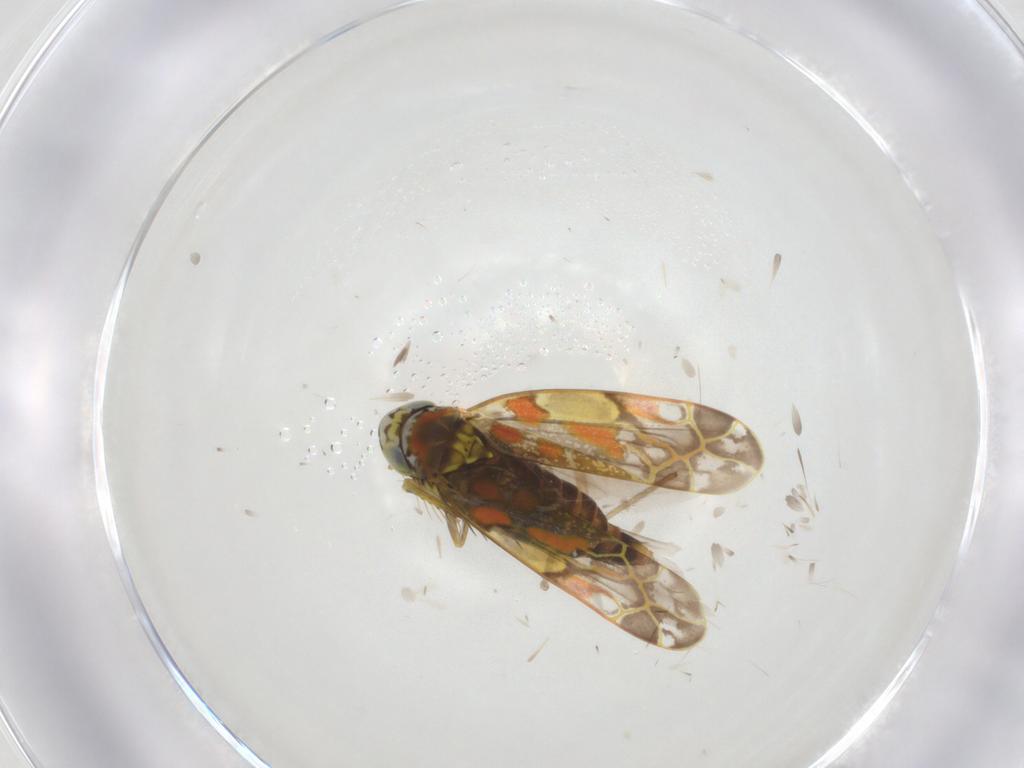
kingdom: Animalia
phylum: Arthropoda
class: Insecta
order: Hemiptera
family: Cicadellidae
